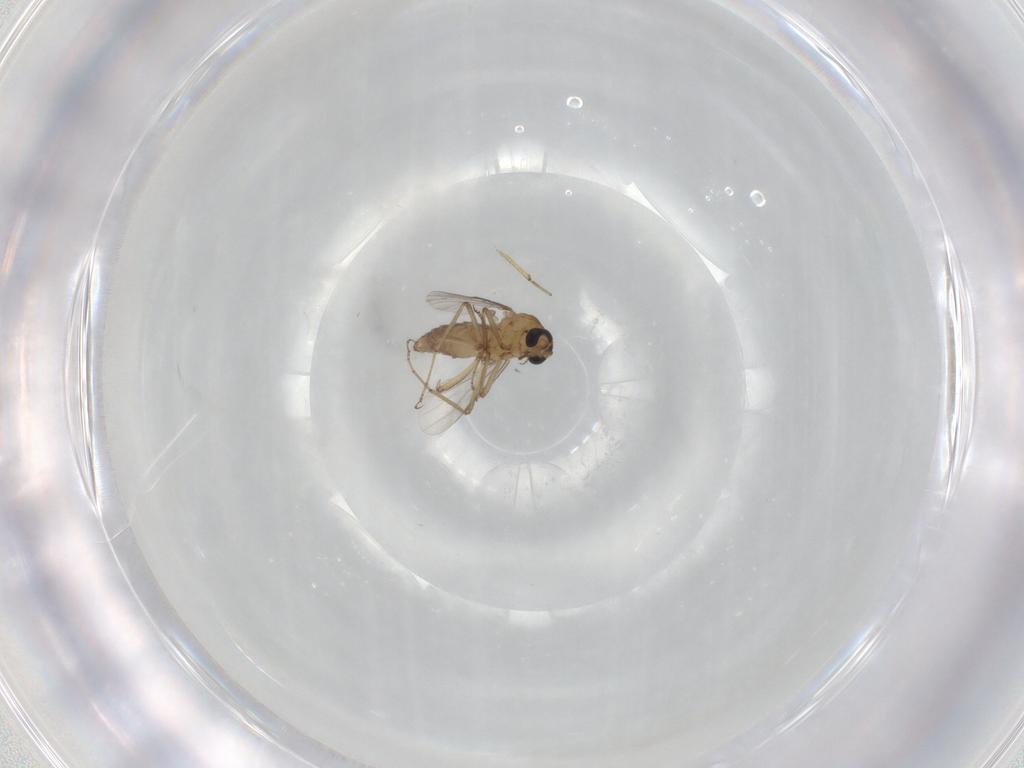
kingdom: Animalia
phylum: Arthropoda
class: Insecta
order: Diptera
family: Ceratopogonidae
